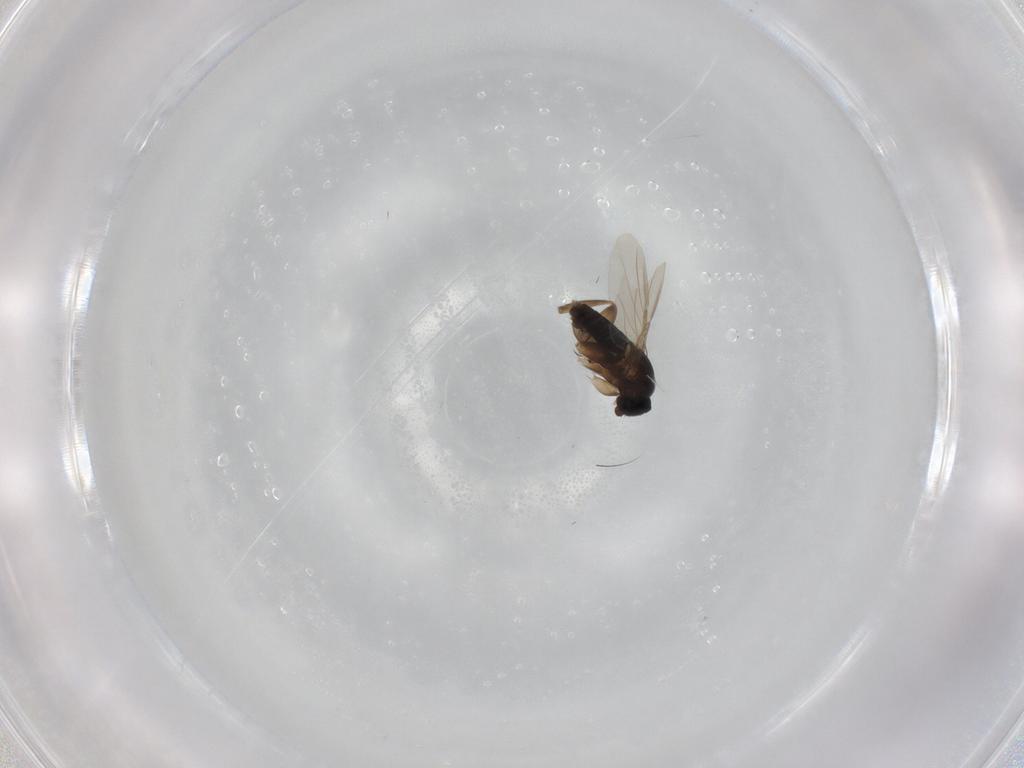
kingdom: Animalia
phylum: Arthropoda
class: Insecta
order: Diptera
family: Phoridae
